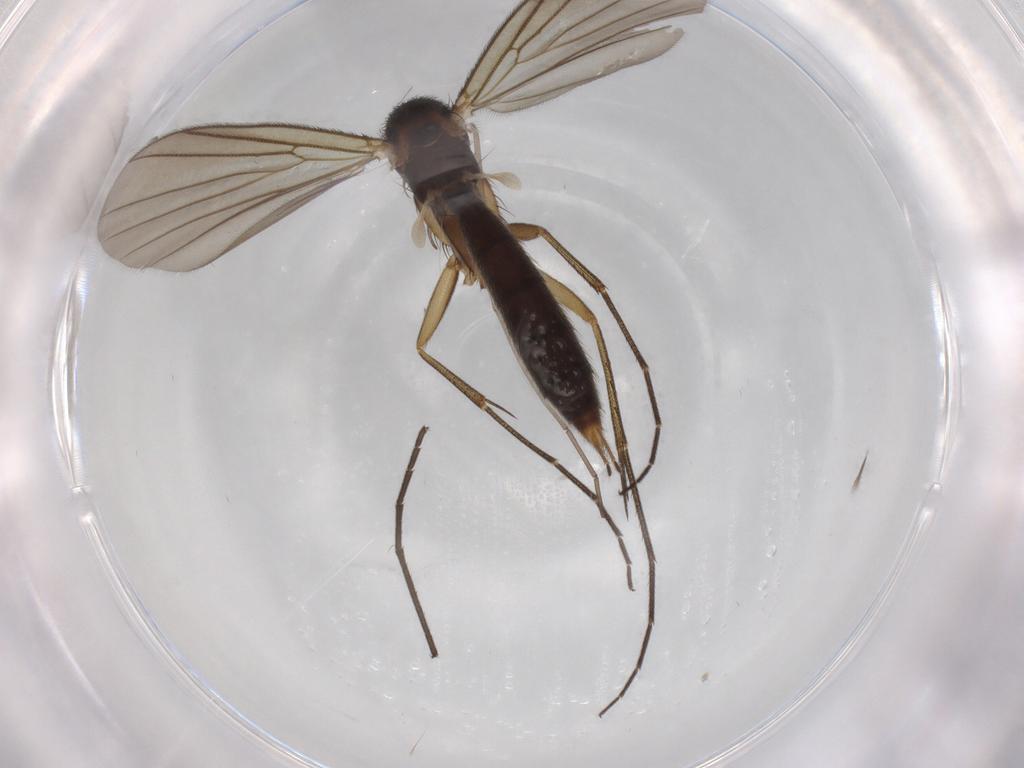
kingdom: Animalia
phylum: Arthropoda
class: Insecta
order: Diptera
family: Sciaridae
